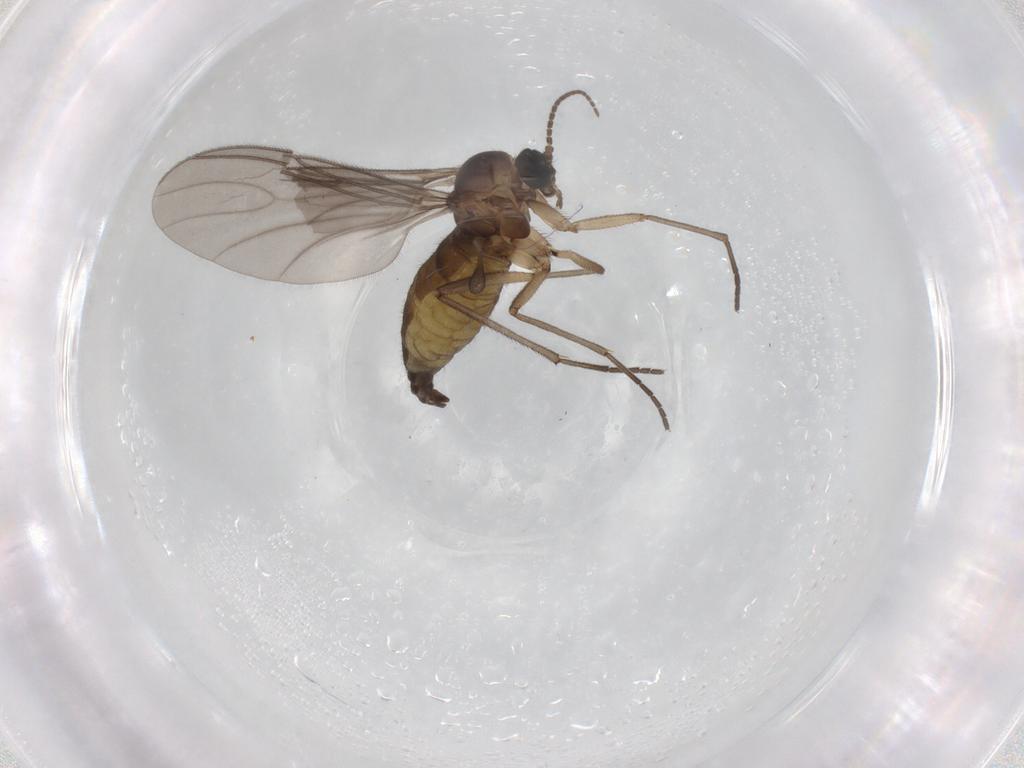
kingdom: Animalia
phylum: Arthropoda
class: Insecta
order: Diptera
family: Sciaridae
